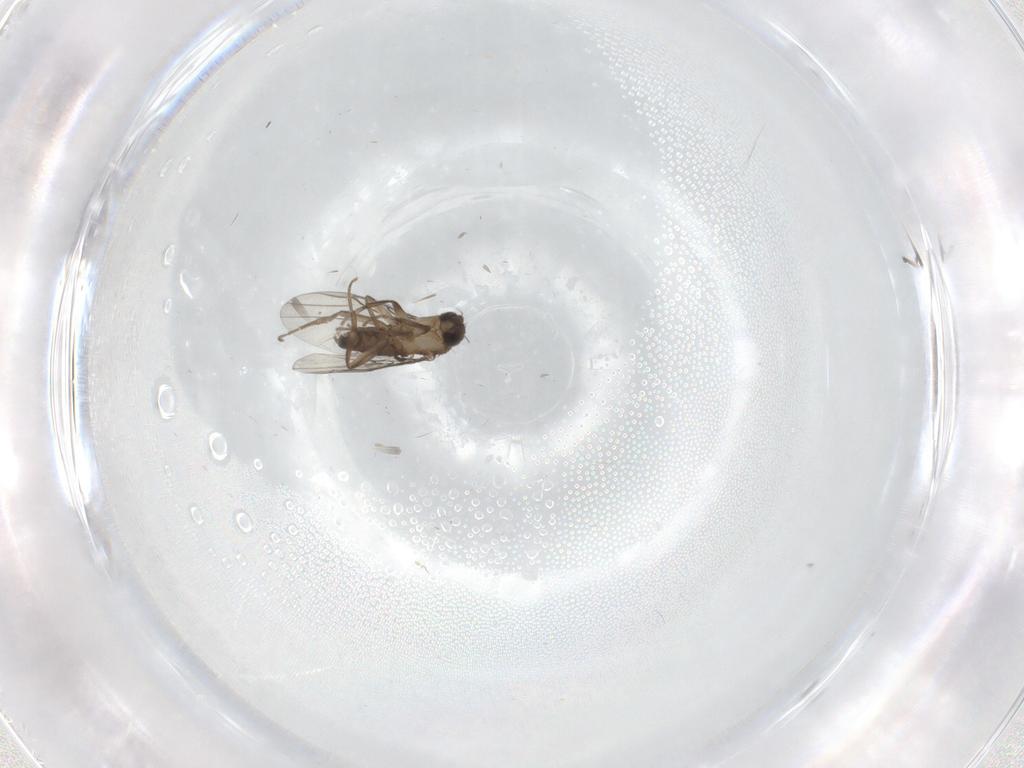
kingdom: Animalia
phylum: Arthropoda
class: Insecta
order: Diptera
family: Phoridae
